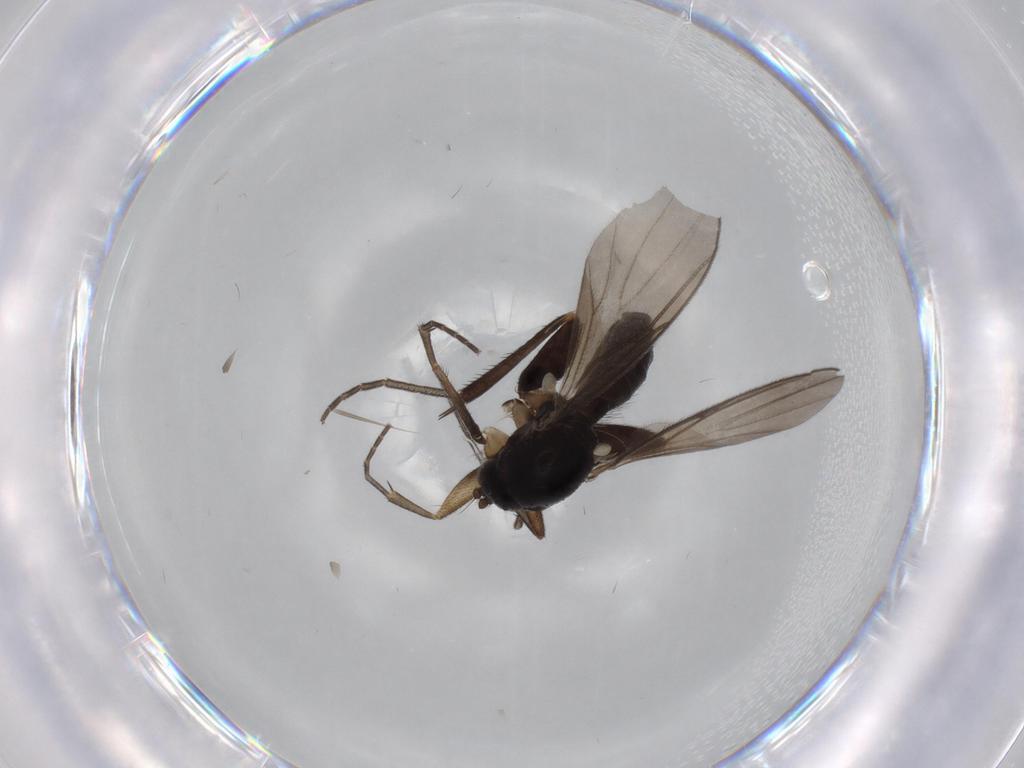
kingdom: Animalia
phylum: Arthropoda
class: Insecta
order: Diptera
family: Mycetophilidae
